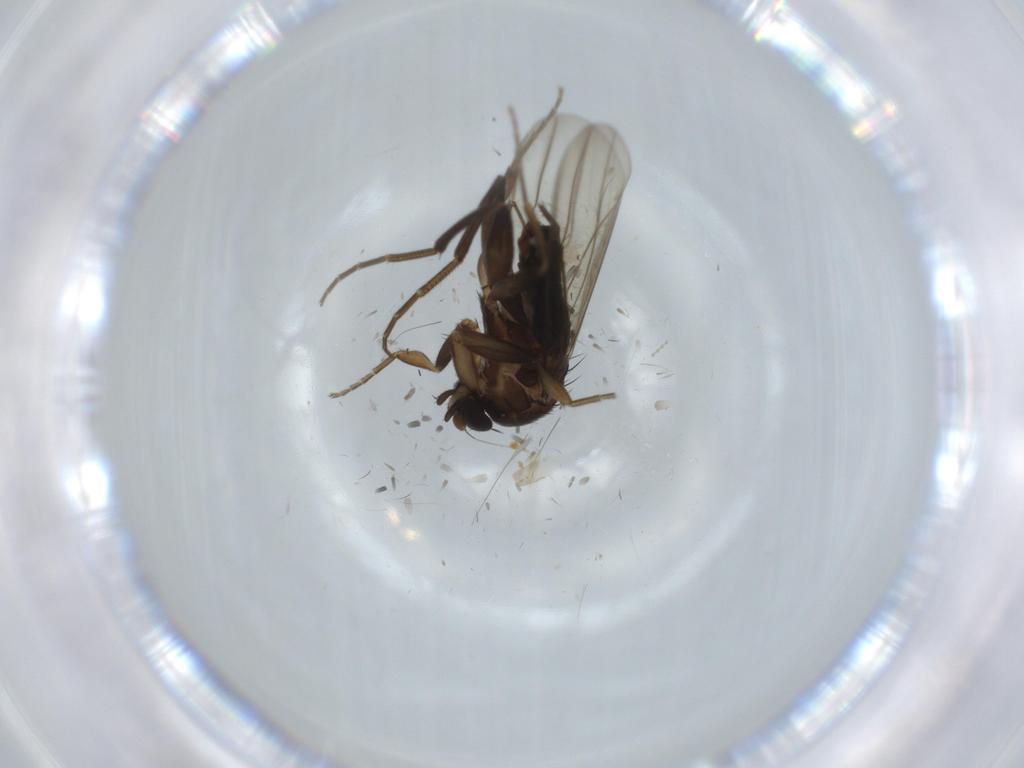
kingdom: Animalia
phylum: Arthropoda
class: Insecta
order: Diptera
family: Sciaridae
